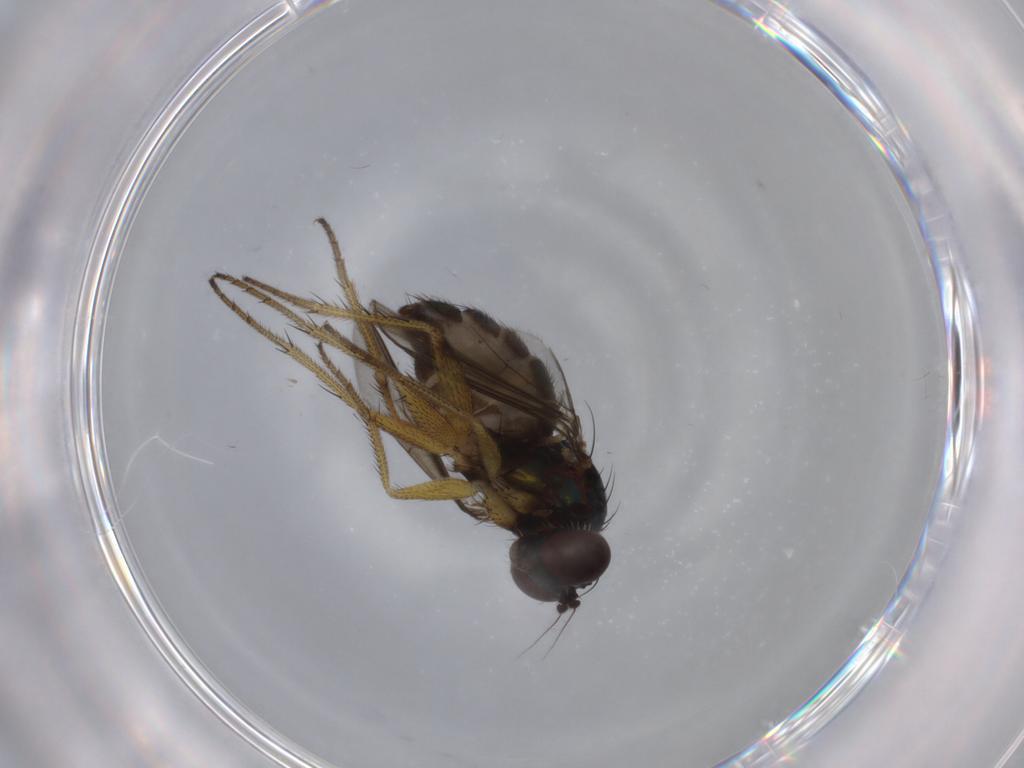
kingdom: Animalia
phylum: Arthropoda
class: Insecta
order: Diptera
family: Dolichopodidae
